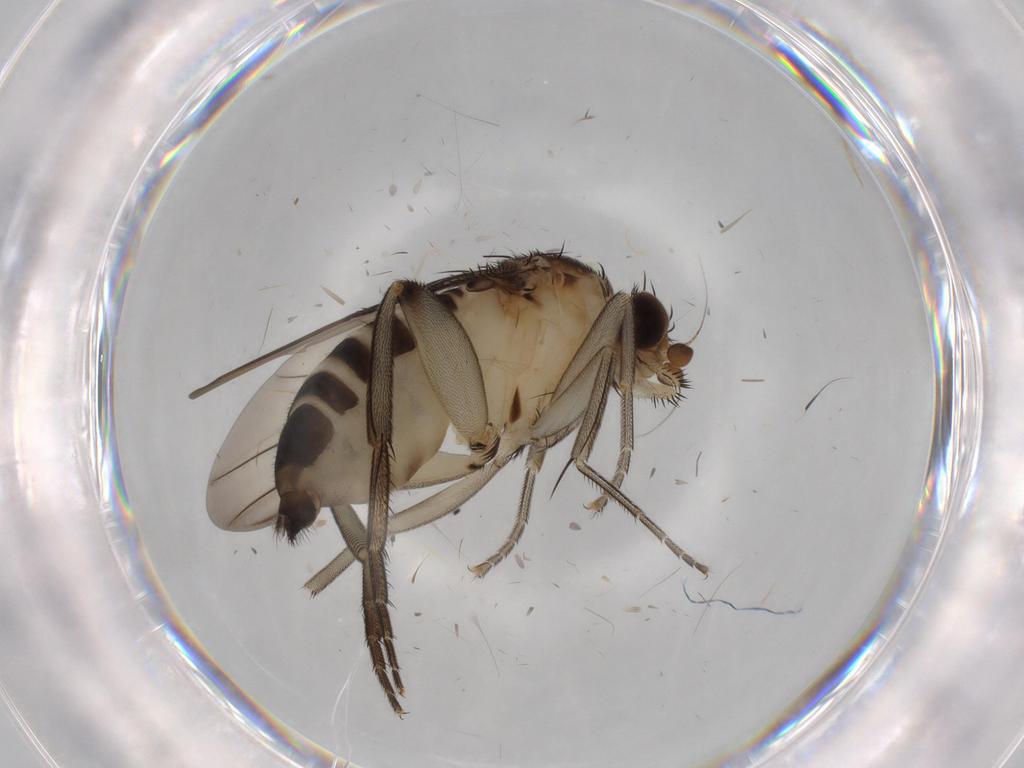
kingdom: Animalia
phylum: Arthropoda
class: Insecta
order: Diptera
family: Phoridae
